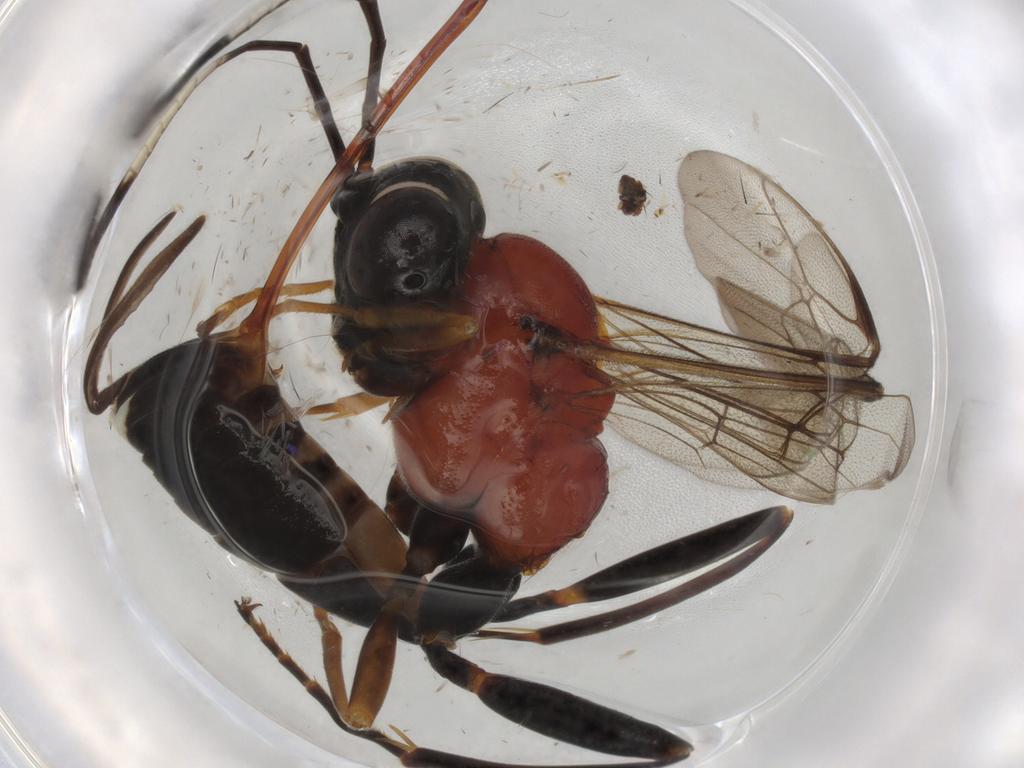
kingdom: Animalia
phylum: Arthropoda
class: Insecta
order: Hymenoptera
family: Ichneumonidae
